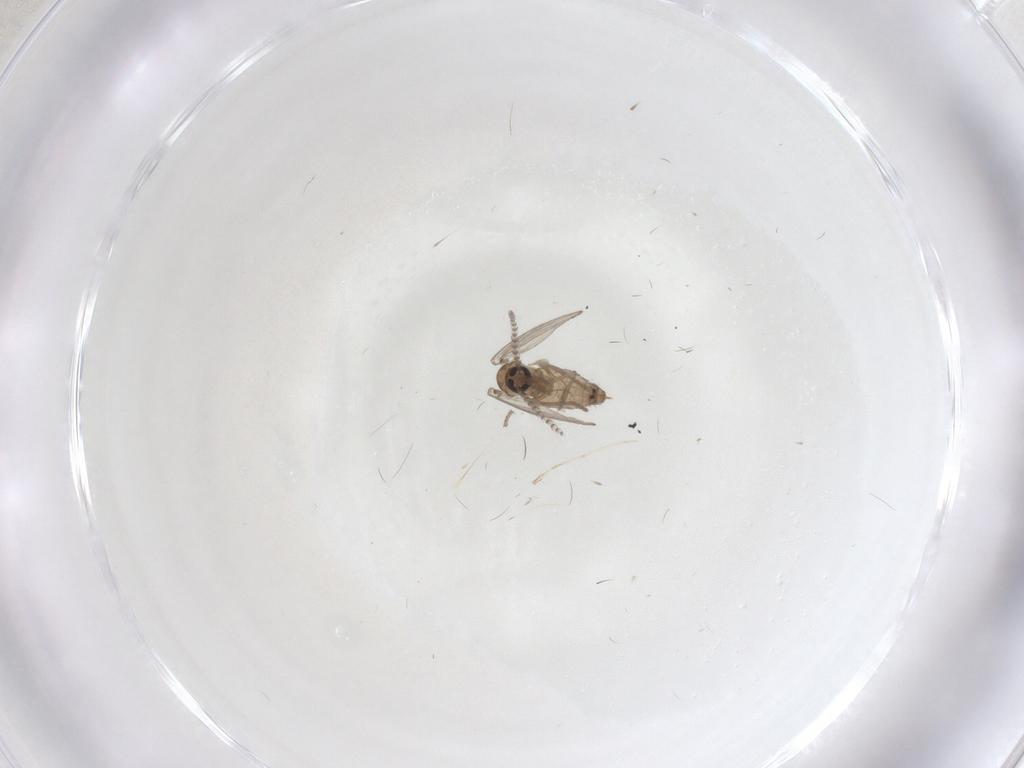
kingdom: Animalia
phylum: Arthropoda
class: Insecta
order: Diptera
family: Psychodidae
